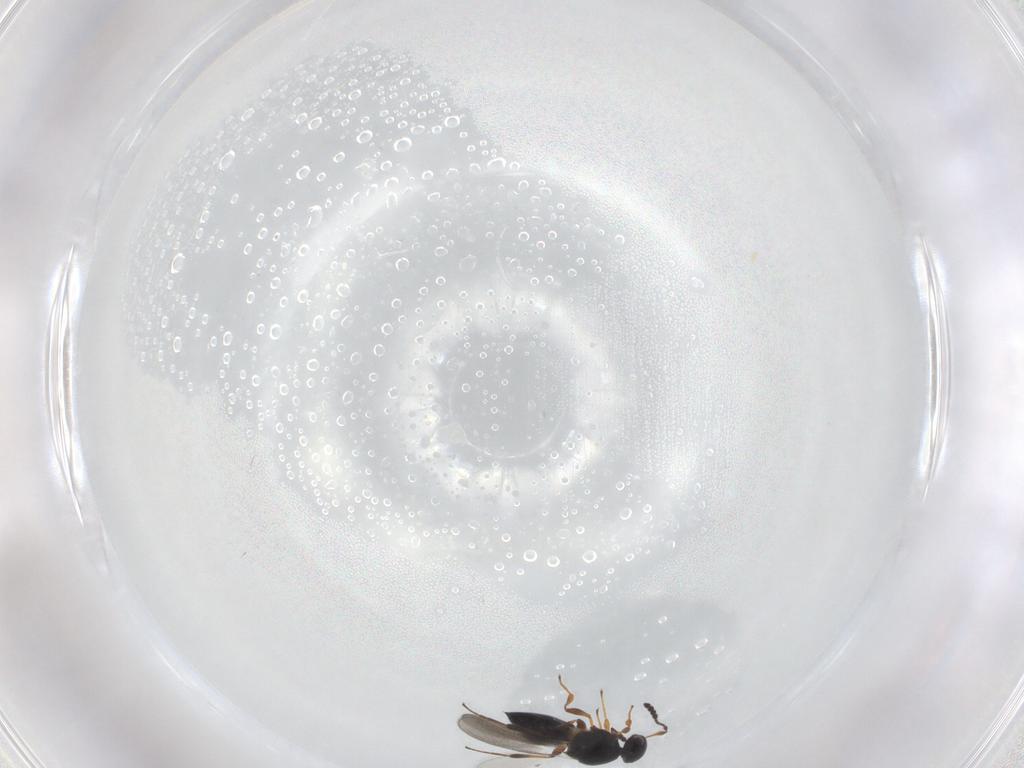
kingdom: Animalia
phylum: Arthropoda
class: Insecta
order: Hymenoptera
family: Platygastridae
